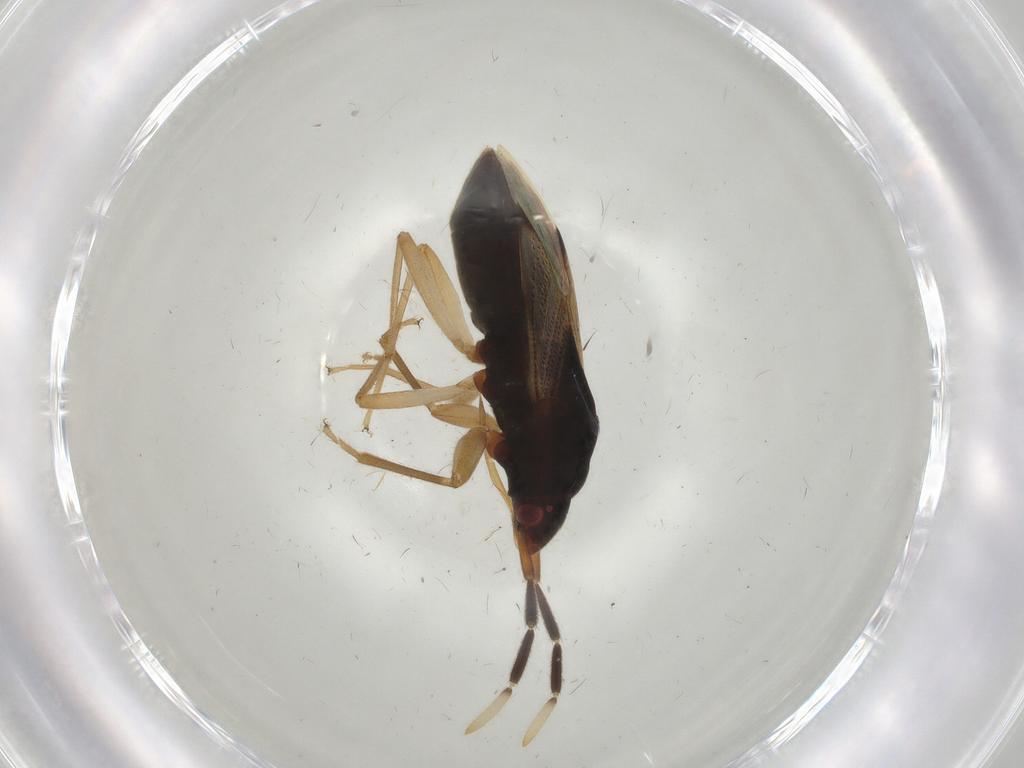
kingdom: Animalia
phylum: Arthropoda
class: Insecta
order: Hemiptera
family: Rhyparochromidae
